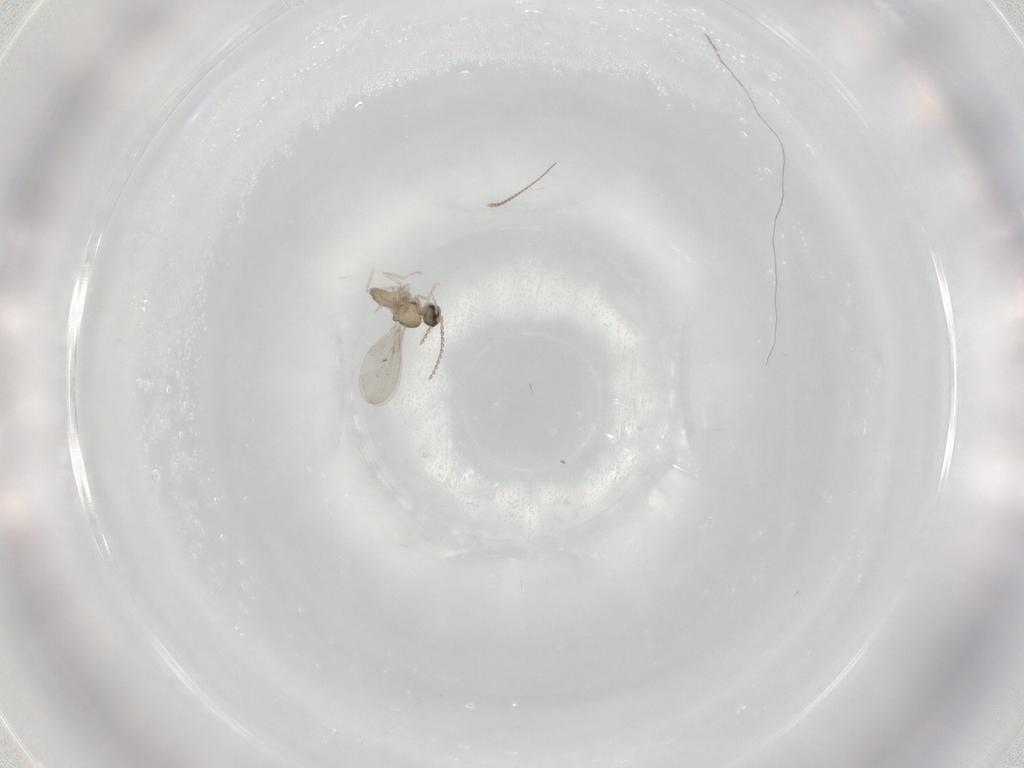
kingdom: Animalia
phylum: Arthropoda
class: Insecta
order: Diptera
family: Cecidomyiidae
